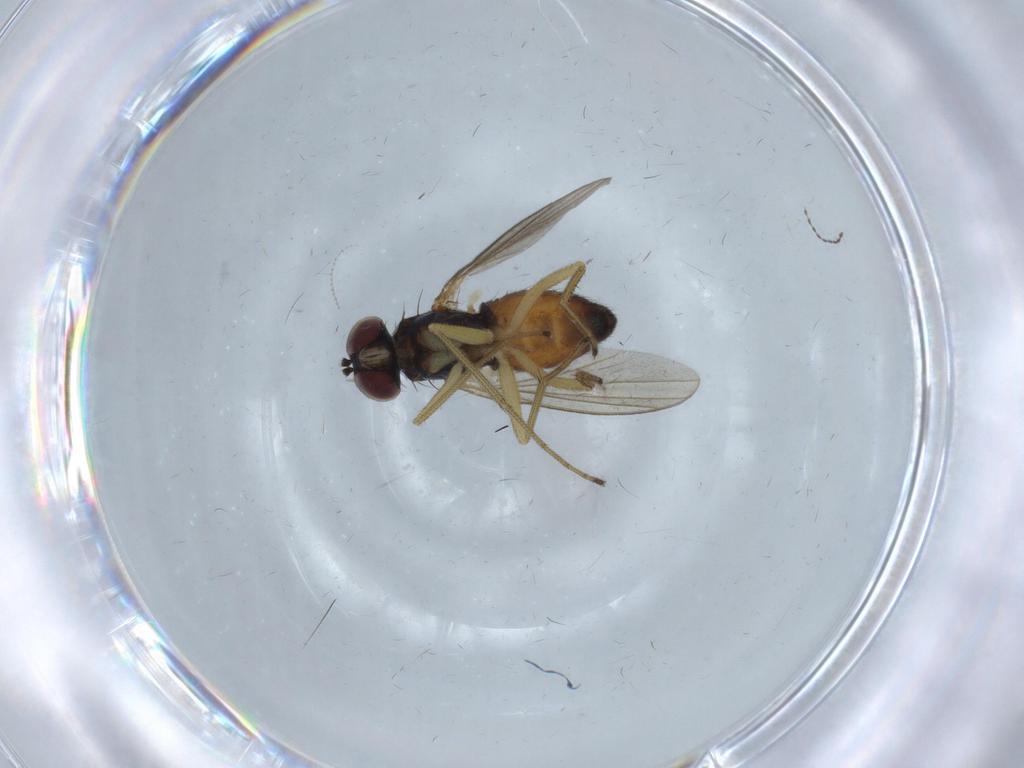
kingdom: Animalia
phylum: Arthropoda
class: Insecta
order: Diptera
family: Dolichopodidae
